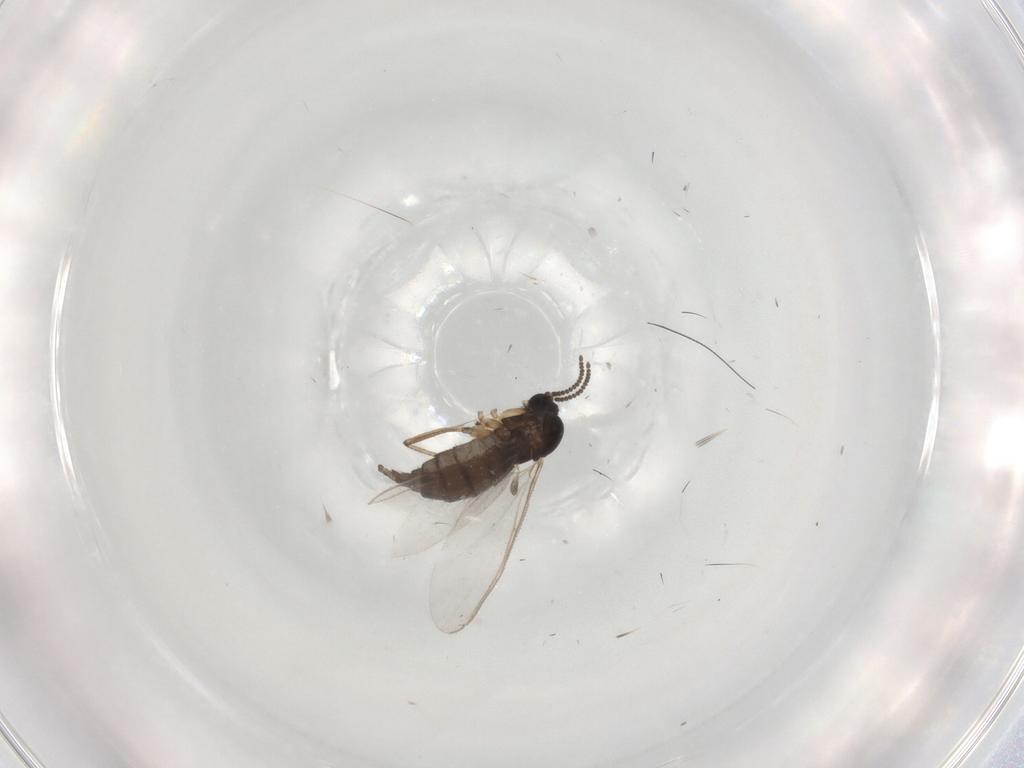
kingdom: Animalia
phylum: Arthropoda
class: Insecta
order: Diptera
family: Sciaridae
